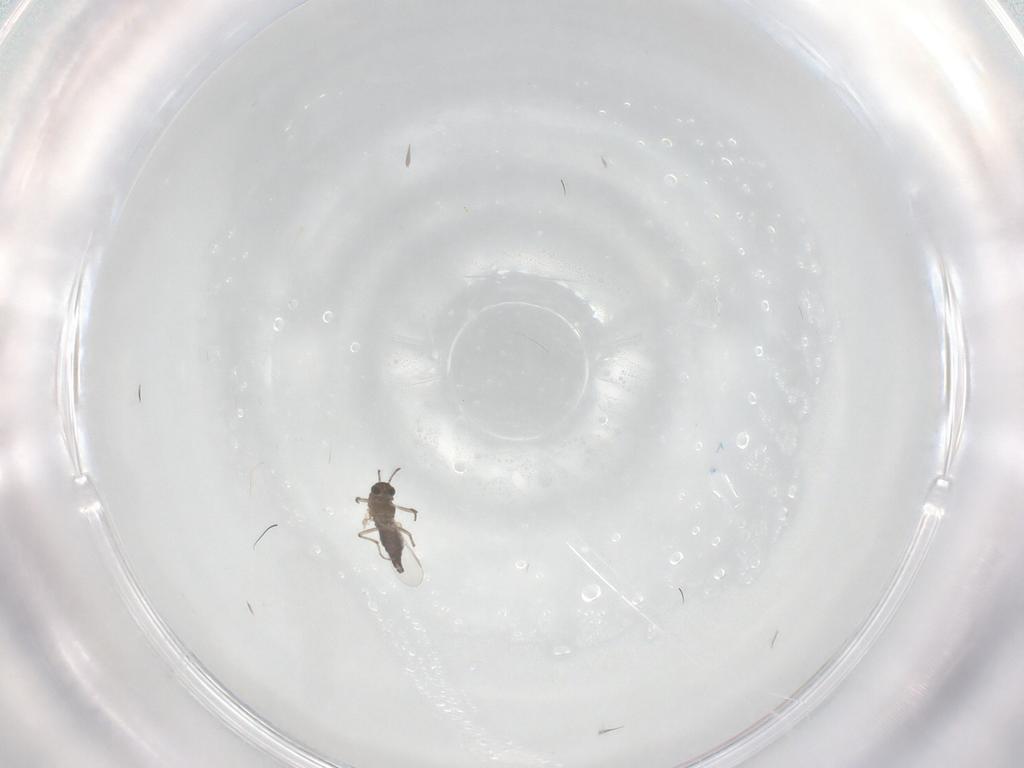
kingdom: Animalia
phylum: Arthropoda
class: Insecta
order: Diptera
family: Chironomidae
